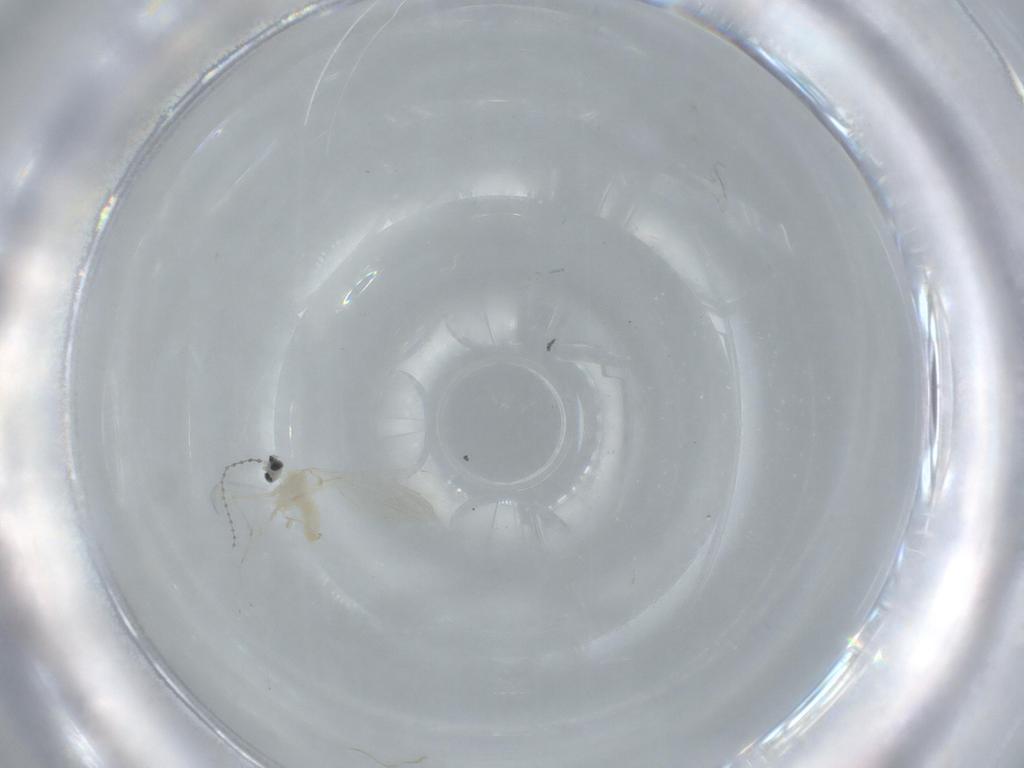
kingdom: Animalia
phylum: Arthropoda
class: Insecta
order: Diptera
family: Cecidomyiidae
